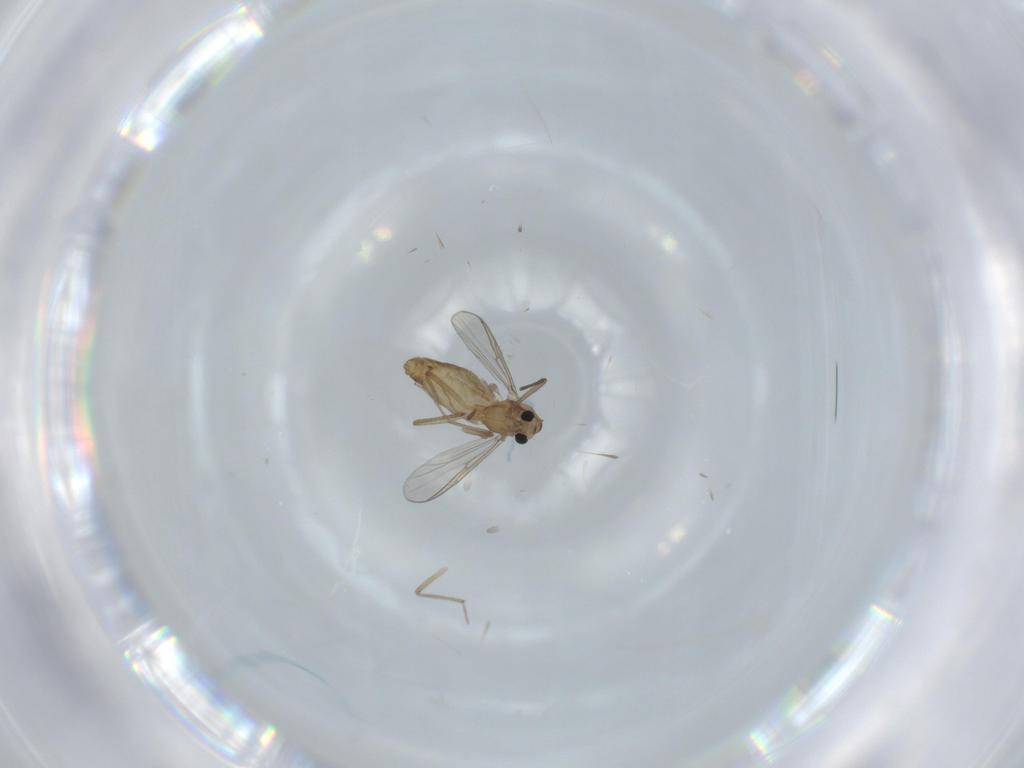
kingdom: Animalia
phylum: Arthropoda
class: Insecta
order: Diptera
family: Chironomidae
